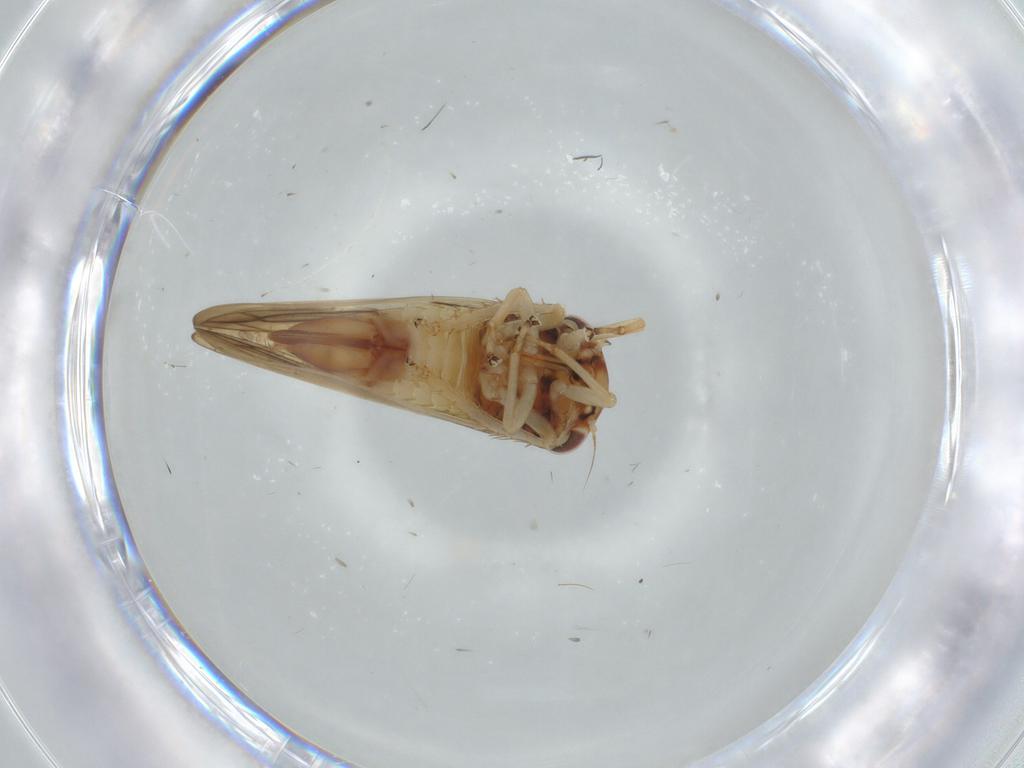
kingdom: Animalia
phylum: Arthropoda
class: Insecta
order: Hemiptera
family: Cicadellidae
